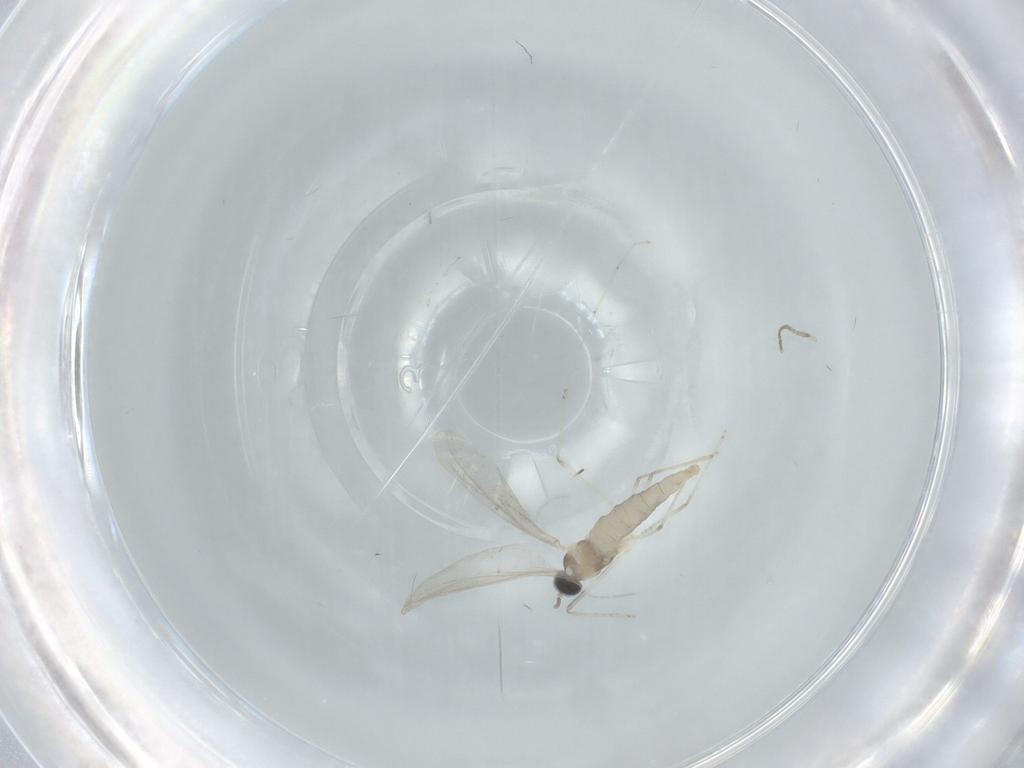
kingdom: Animalia
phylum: Arthropoda
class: Insecta
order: Diptera
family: Cecidomyiidae
